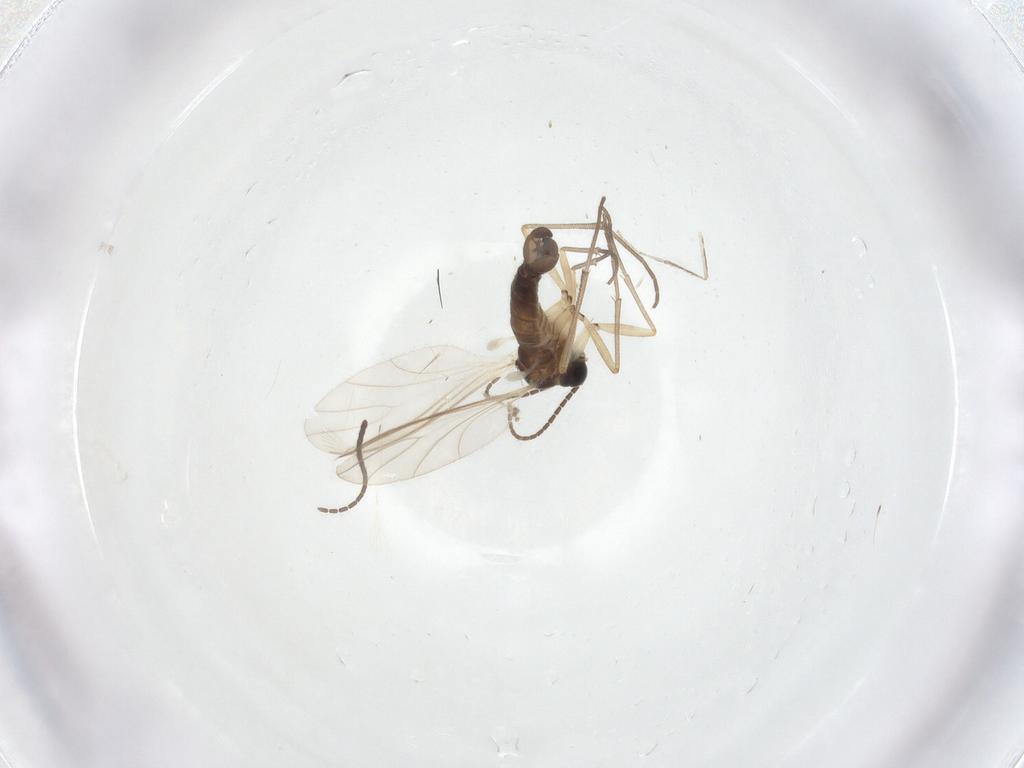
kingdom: Animalia
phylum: Arthropoda
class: Insecta
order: Diptera
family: Cecidomyiidae
